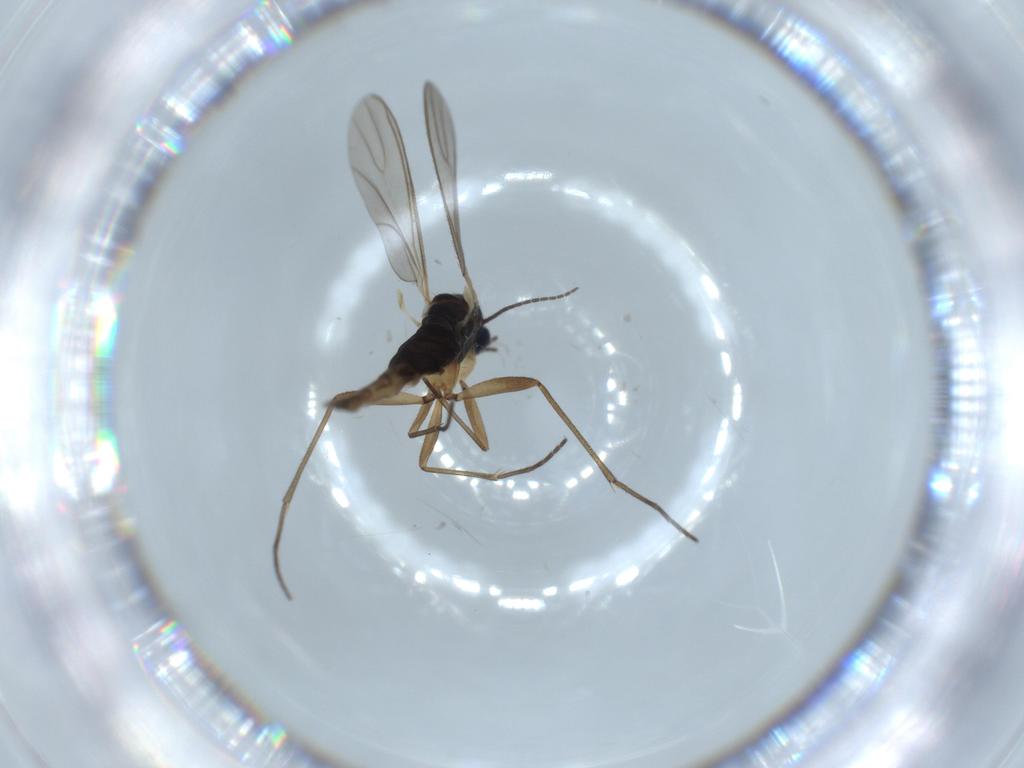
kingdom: Animalia
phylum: Arthropoda
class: Insecta
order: Diptera
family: Sciaridae
